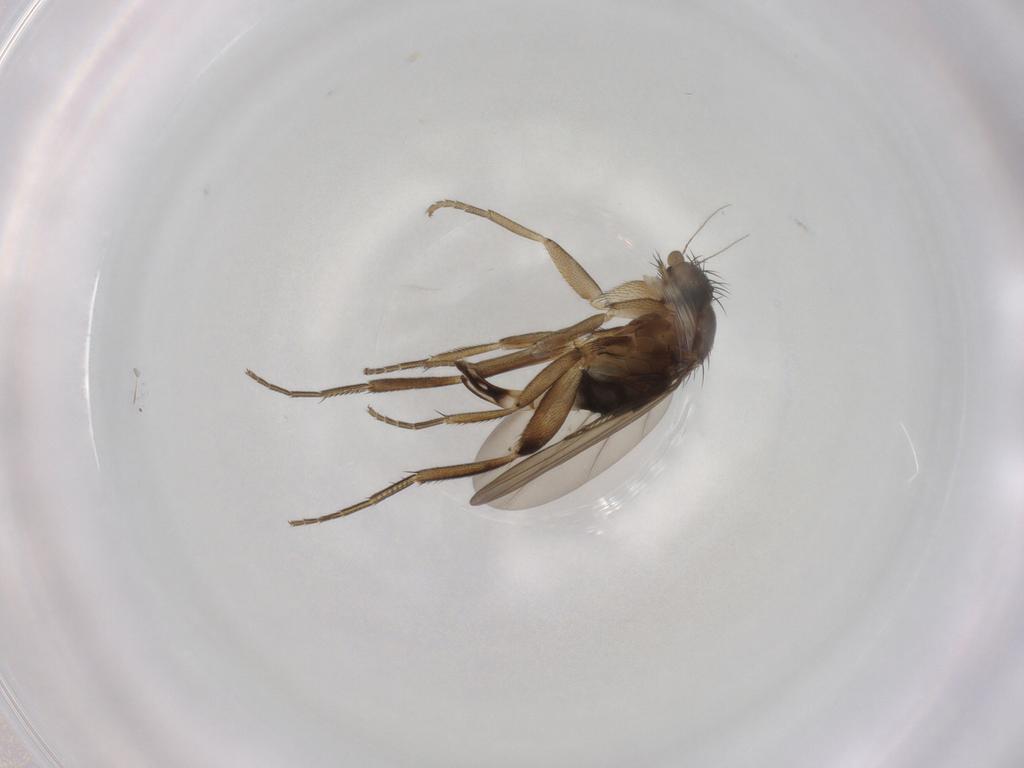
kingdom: Animalia
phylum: Arthropoda
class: Insecta
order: Diptera
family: Phoridae
